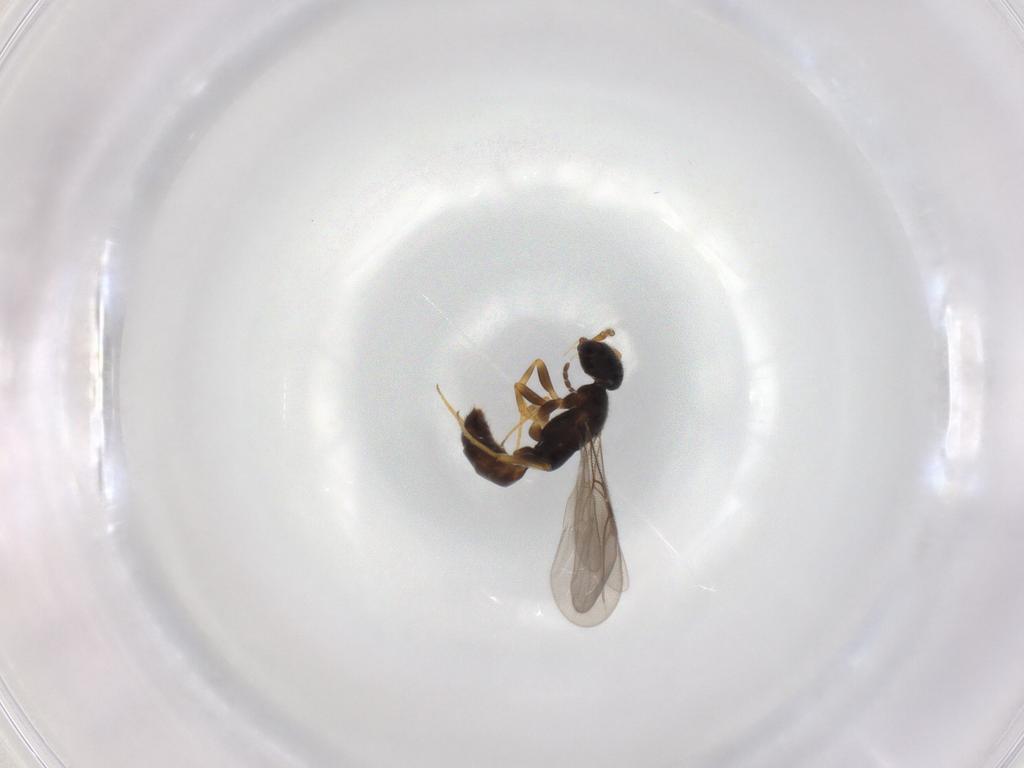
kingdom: Animalia
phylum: Arthropoda
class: Insecta
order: Hymenoptera
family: Bethylidae
